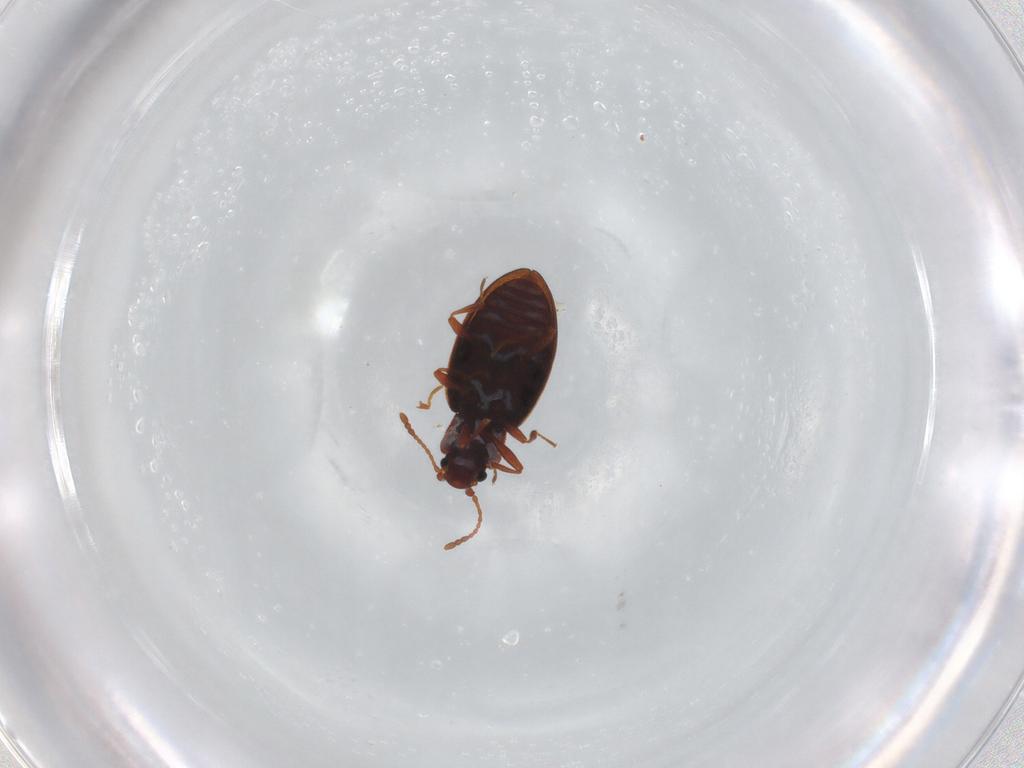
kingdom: Animalia
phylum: Arthropoda
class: Insecta
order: Coleoptera
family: Latridiidae
